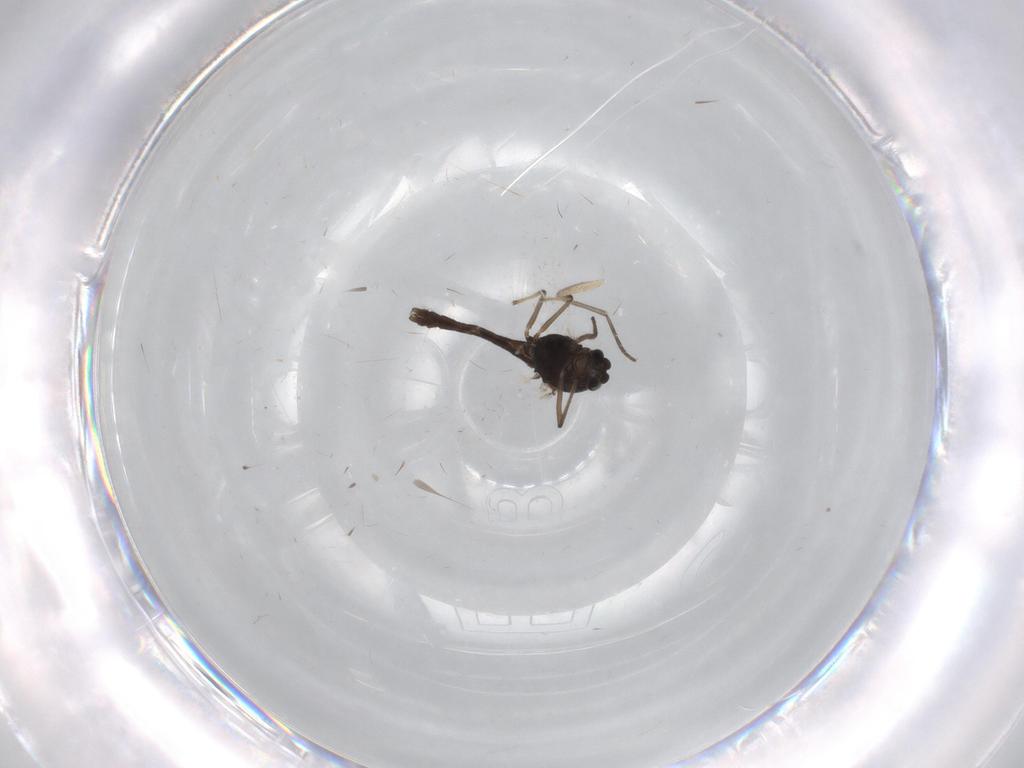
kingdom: Animalia
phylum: Arthropoda
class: Insecta
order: Diptera
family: Chironomidae
